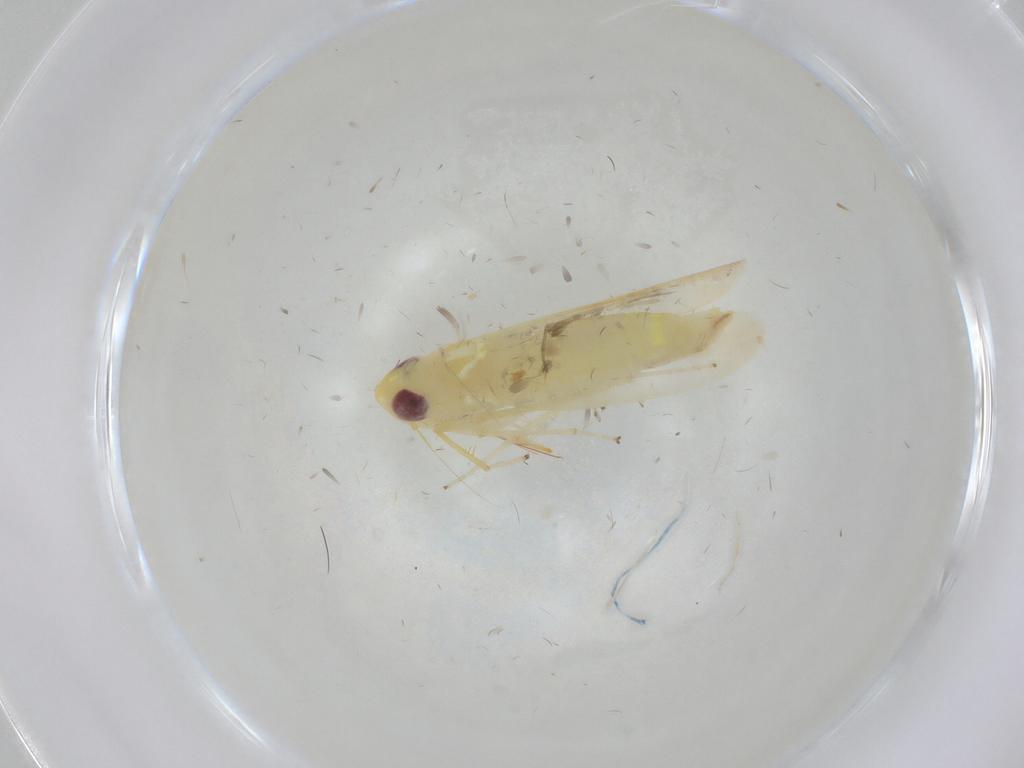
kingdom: Animalia
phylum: Arthropoda
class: Insecta
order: Hemiptera
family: Cicadellidae
